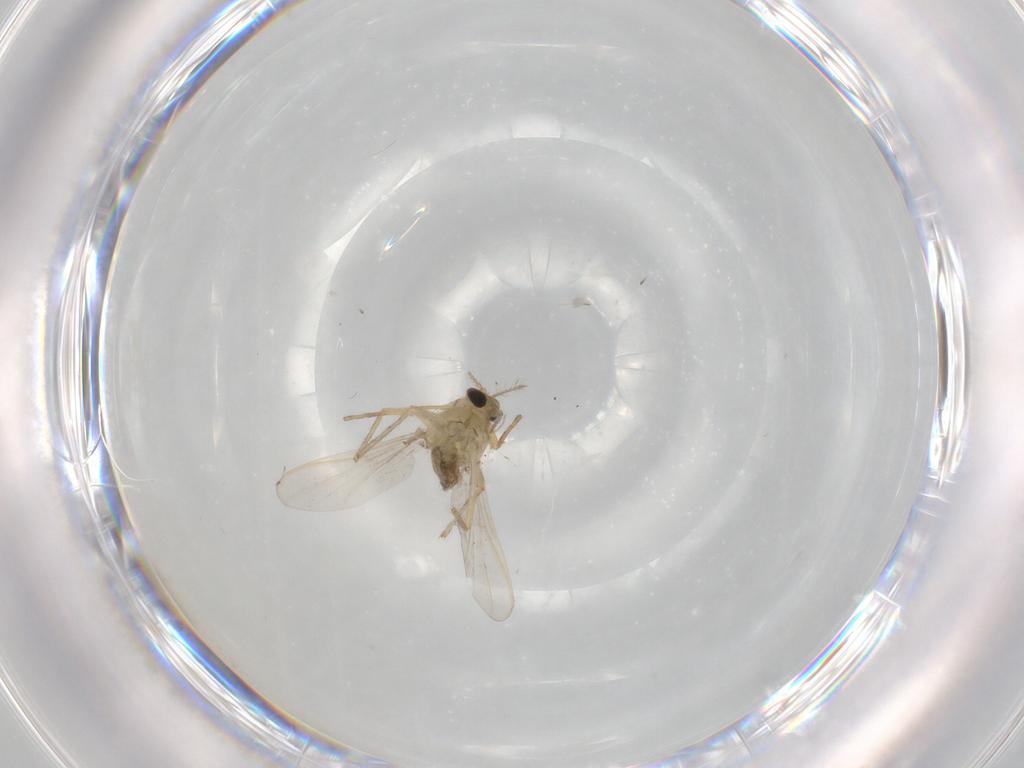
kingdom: Animalia
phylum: Arthropoda
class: Insecta
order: Diptera
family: Chironomidae
